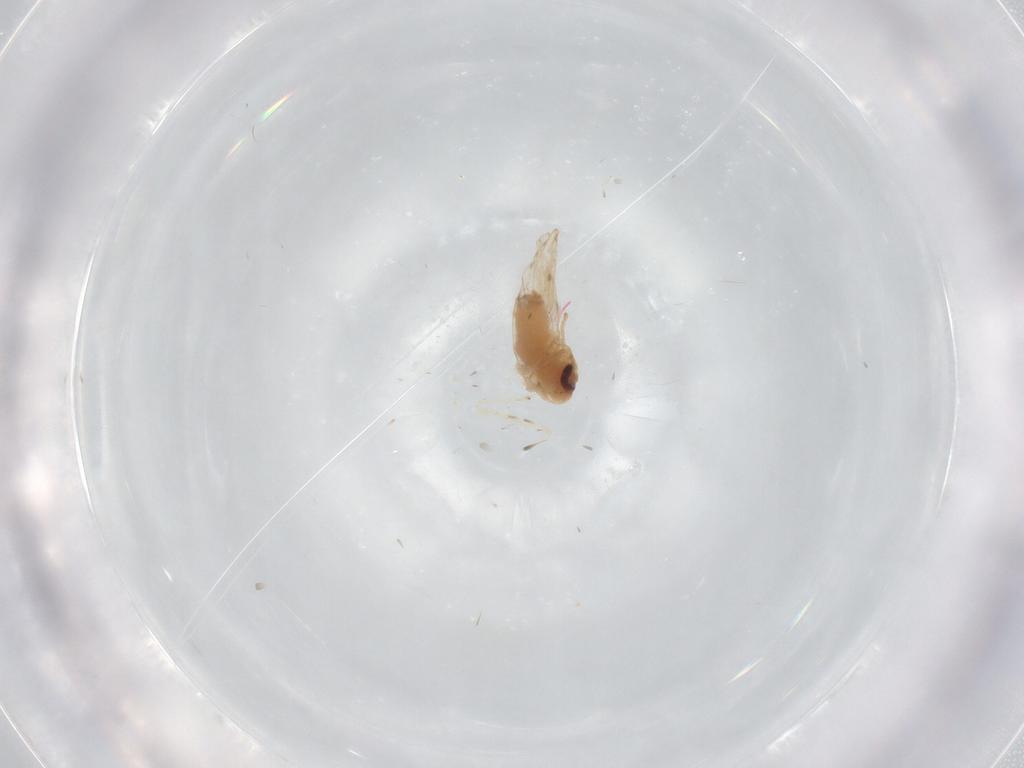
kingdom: Animalia
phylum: Arthropoda
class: Insecta
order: Diptera
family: Psychodidae
